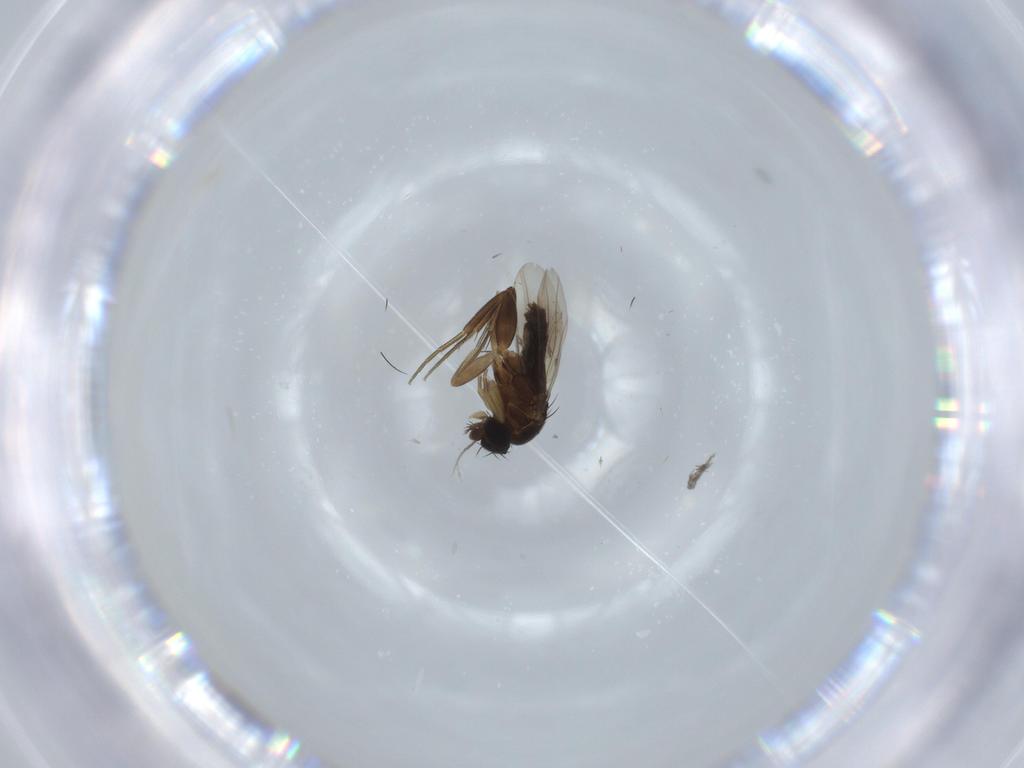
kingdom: Animalia
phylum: Arthropoda
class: Insecta
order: Diptera
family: Phoridae
